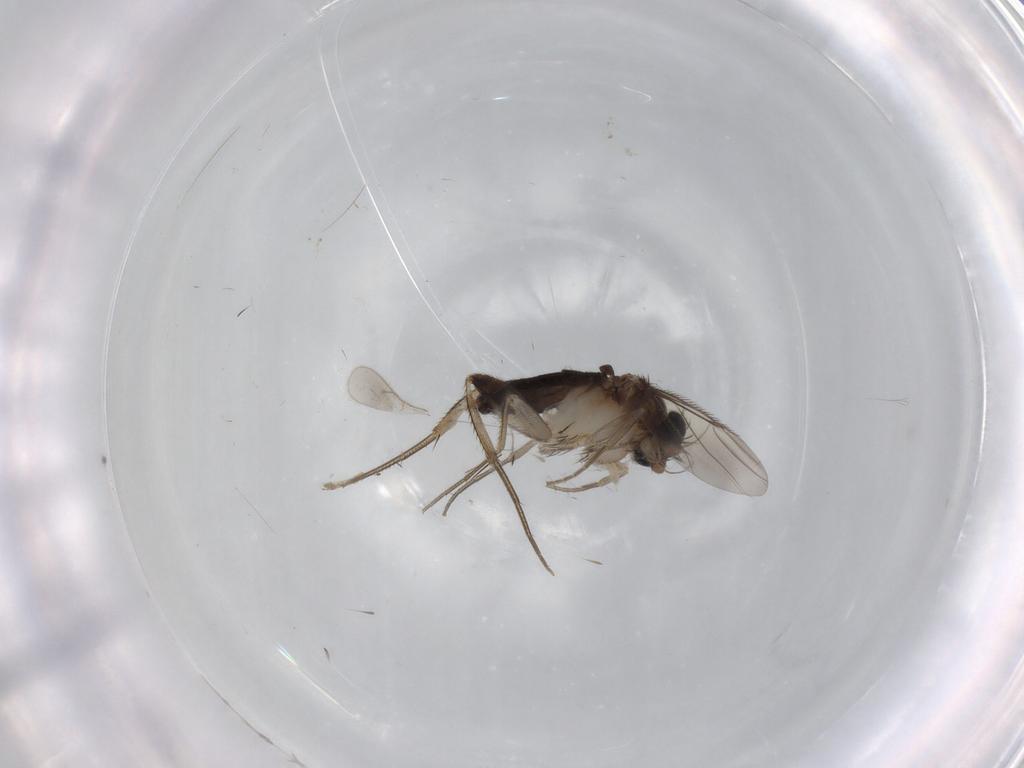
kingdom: Animalia
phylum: Arthropoda
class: Insecta
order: Diptera
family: Phoridae
